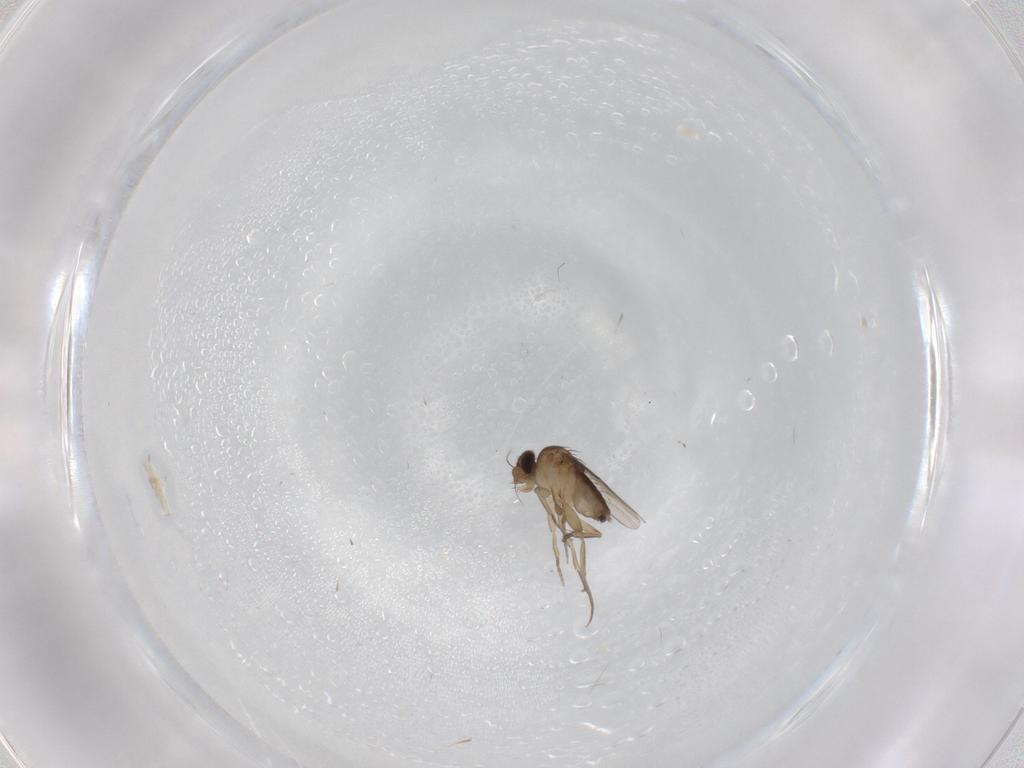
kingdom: Animalia
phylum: Arthropoda
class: Insecta
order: Diptera
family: Phoridae
